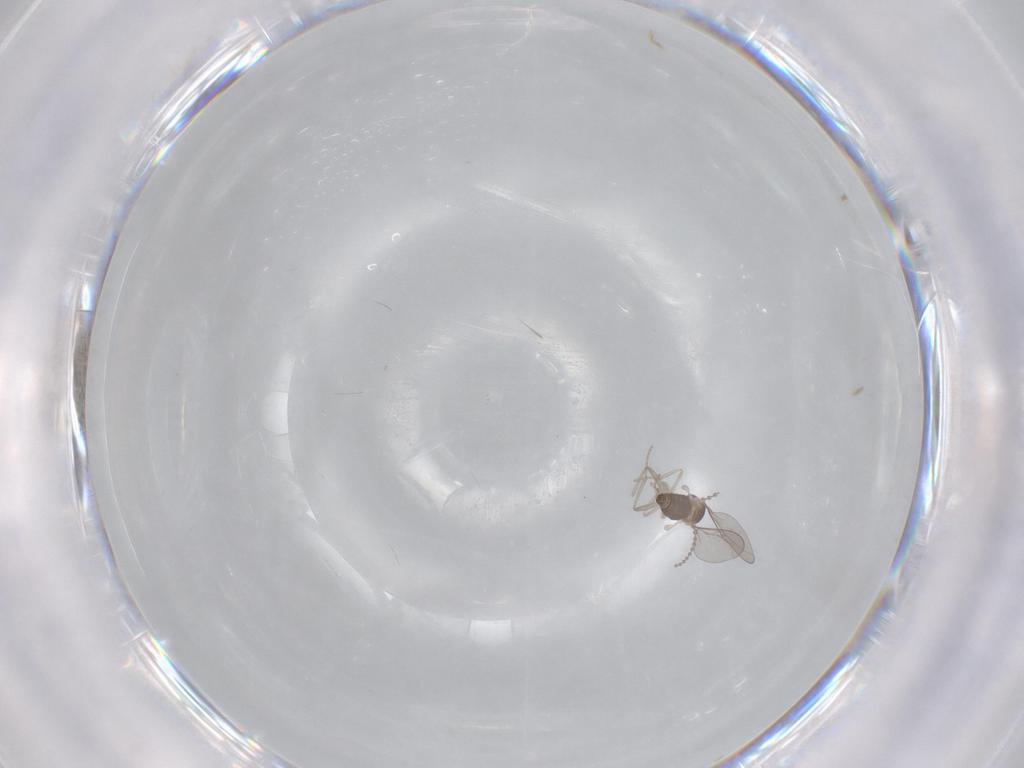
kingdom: Animalia
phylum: Arthropoda
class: Insecta
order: Diptera
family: Cecidomyiidae
